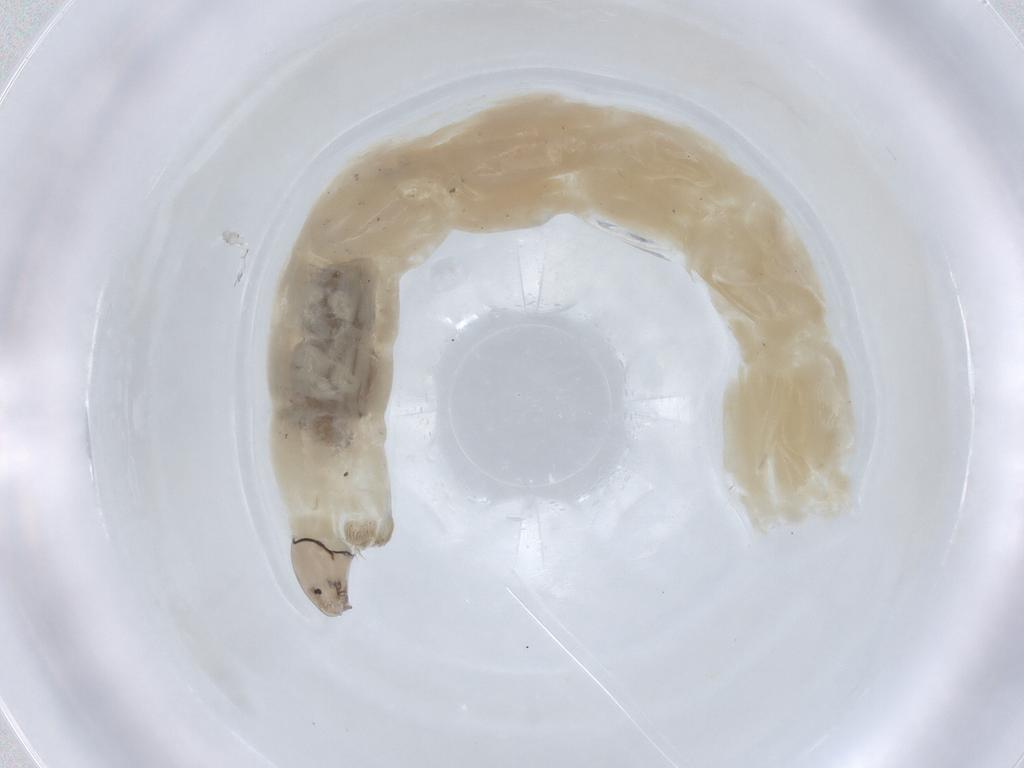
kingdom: Animalia
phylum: Arthropoda
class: Insecta
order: Diptera
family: Chironomidae
